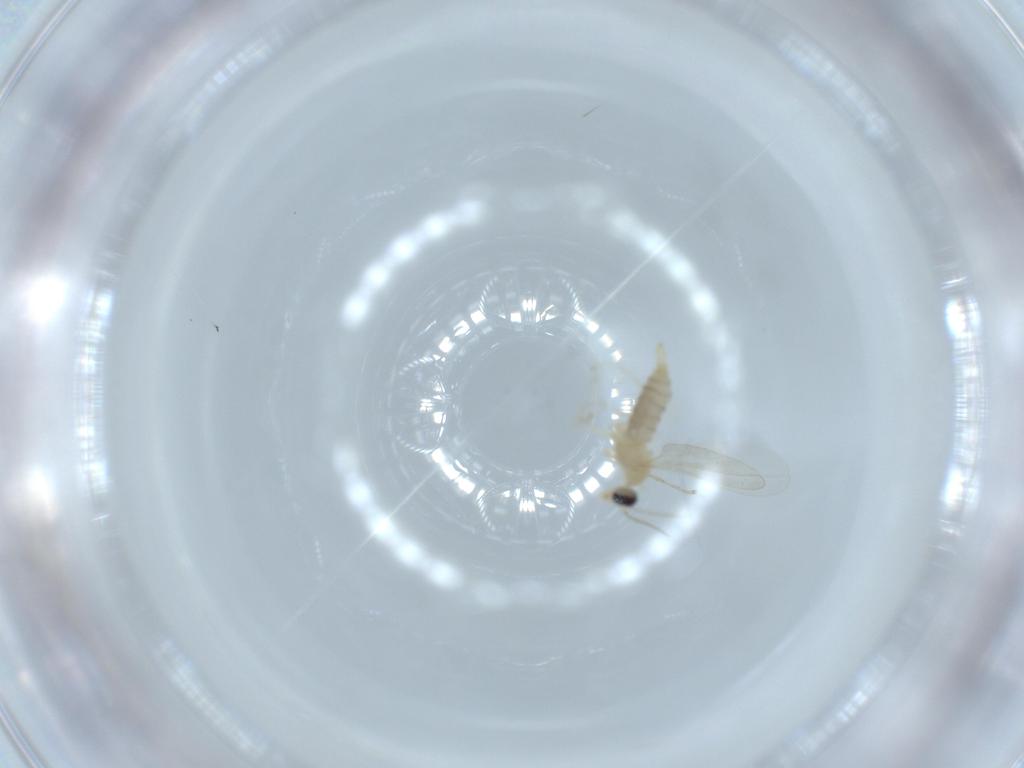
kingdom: Animalia
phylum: Arthropoda
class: Insecta
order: Diptera
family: Cecidomyiidae
